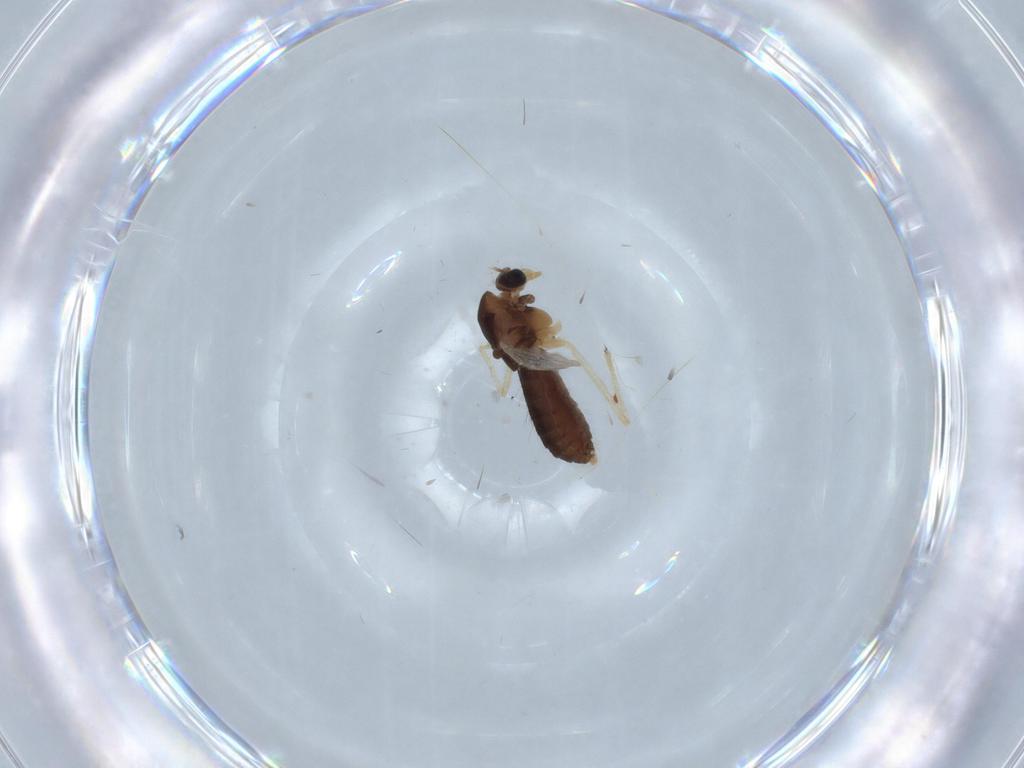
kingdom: Animalia
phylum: Arthropoda
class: Insecta
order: Diptera
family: Chironomidae
